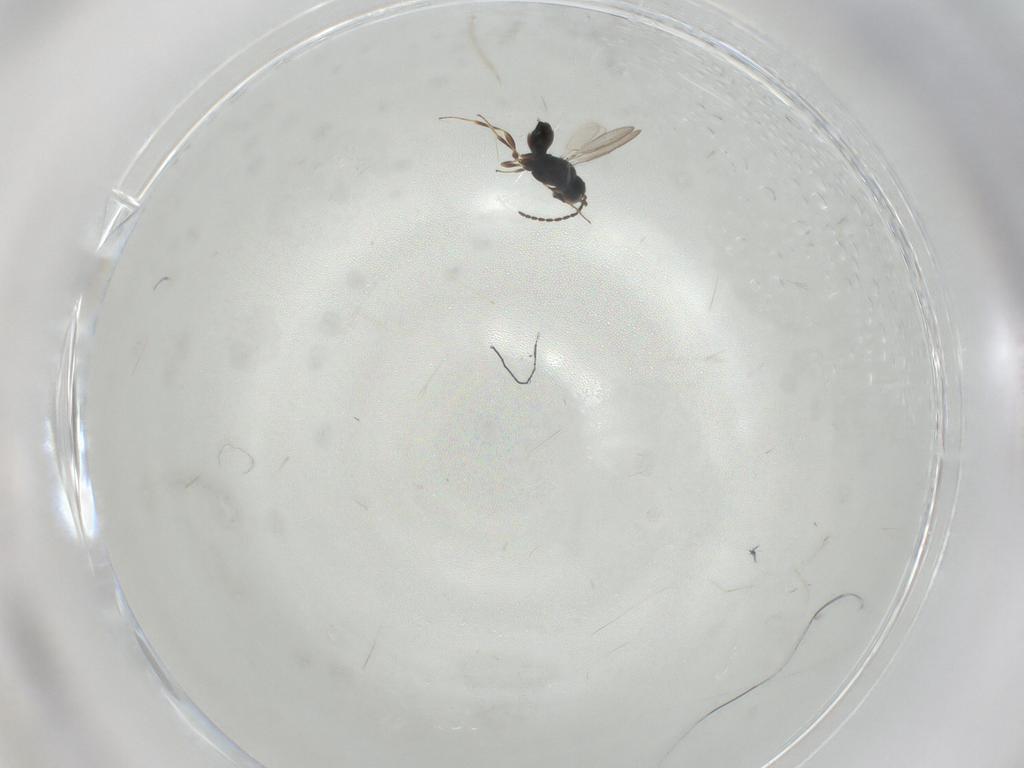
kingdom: Animalia
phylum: Arthropoda
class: Insecta
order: Hymenoptera
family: Scelionidae
